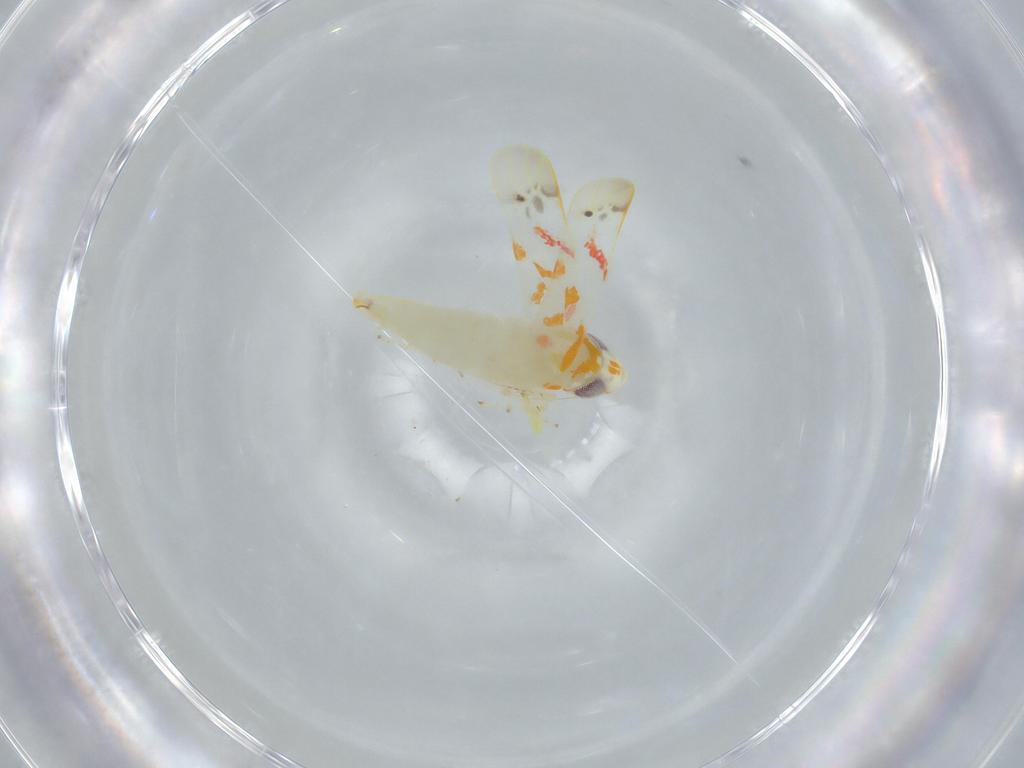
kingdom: Animalia
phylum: Arthropoda
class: Insecta
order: Hemiptera
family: Cicadellidae
